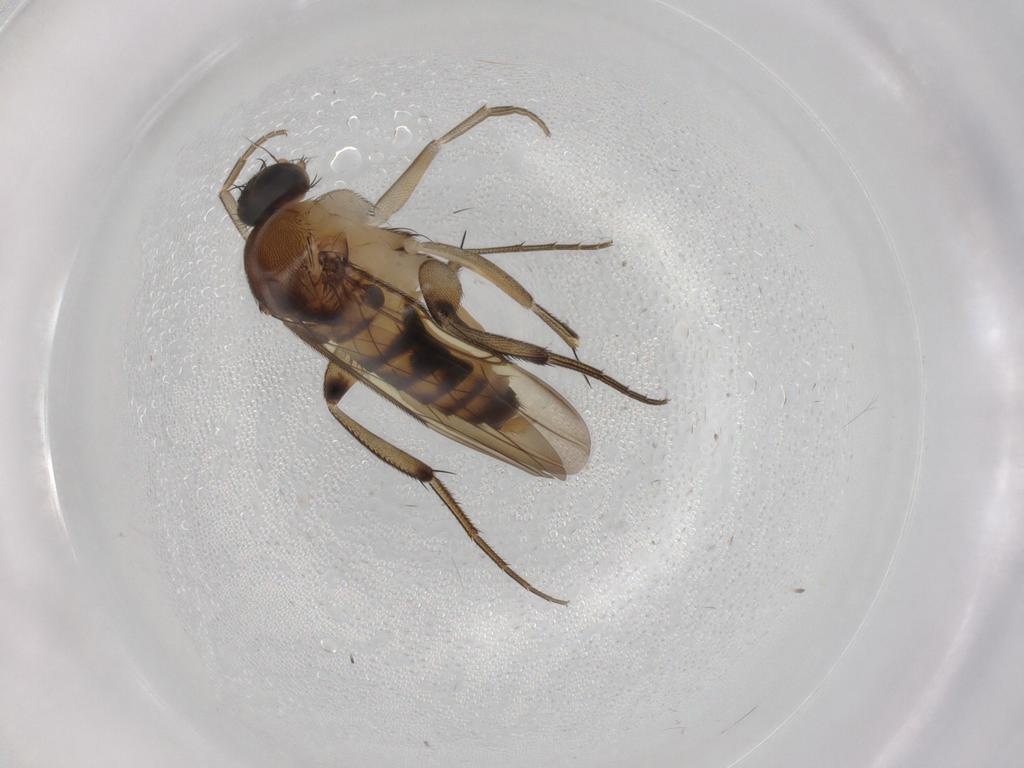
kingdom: Animalia
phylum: Arthropoda
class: Insecta
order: Diptera
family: Phoridae
